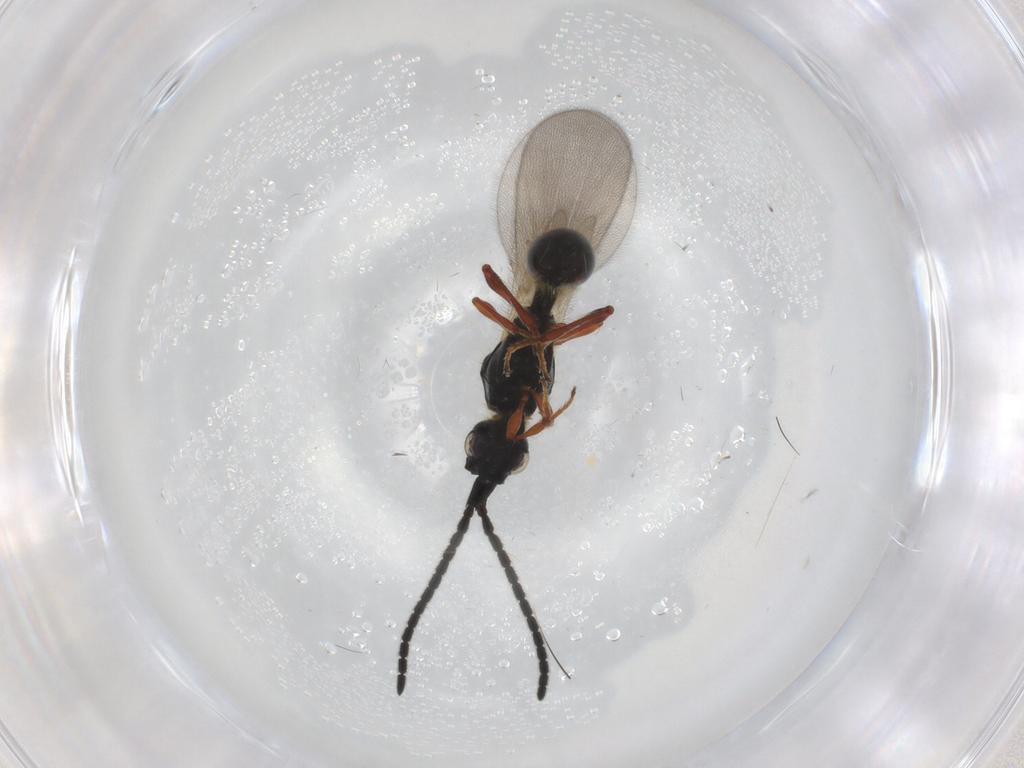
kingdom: Animalia
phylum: Arthropoda
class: Insecta
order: Hymenoptera
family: Diapriidae
